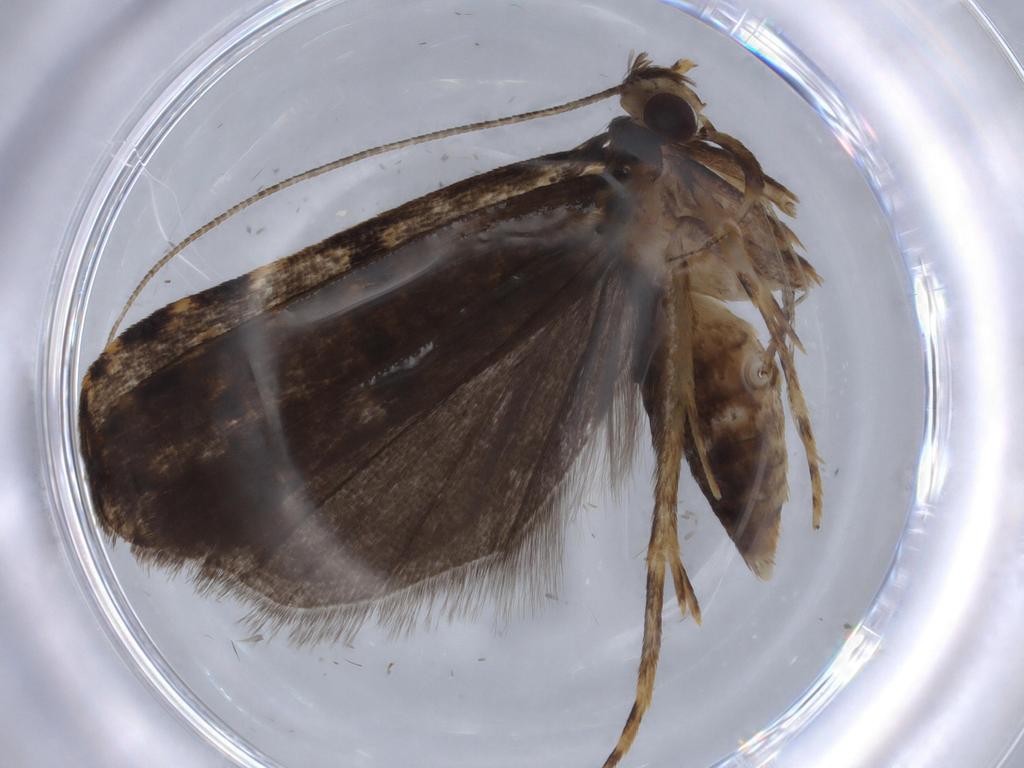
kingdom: Animalia
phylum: Arthropoda
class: Insecta
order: Lepidoptera
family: Autostichidae
